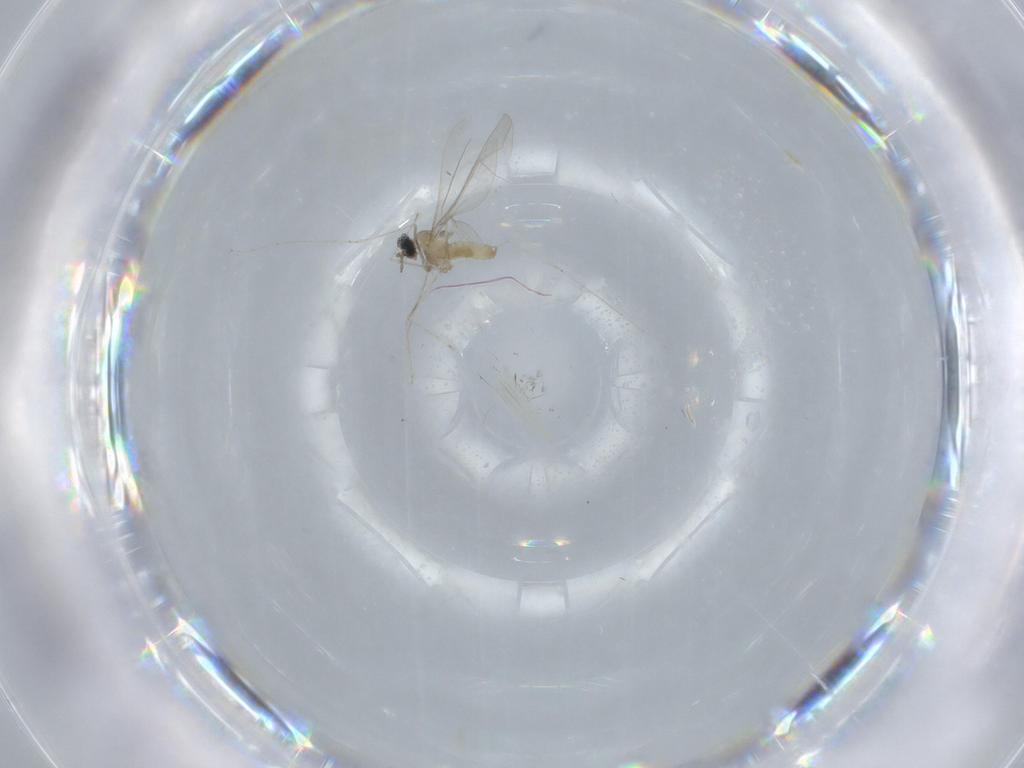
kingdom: Animalia
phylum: Arthropoda
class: Insecta
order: Diptera
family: Cecidomyiidae
